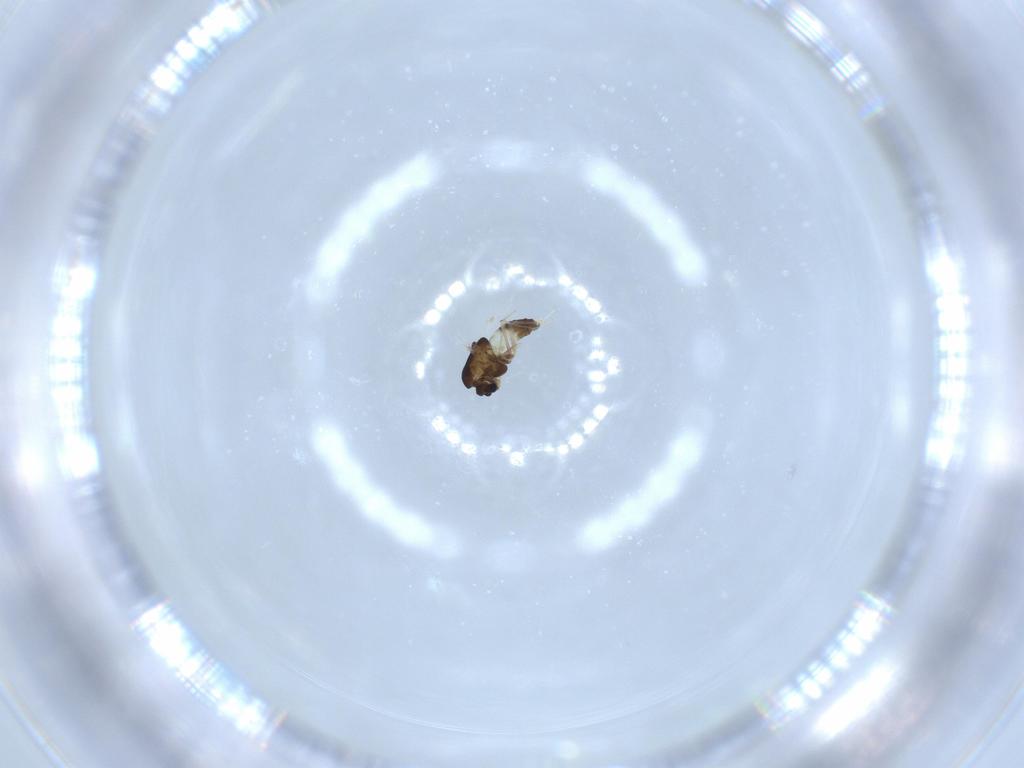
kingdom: Animalia
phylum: Arthropoda
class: Insecta
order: Diptera
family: Chironomidae
